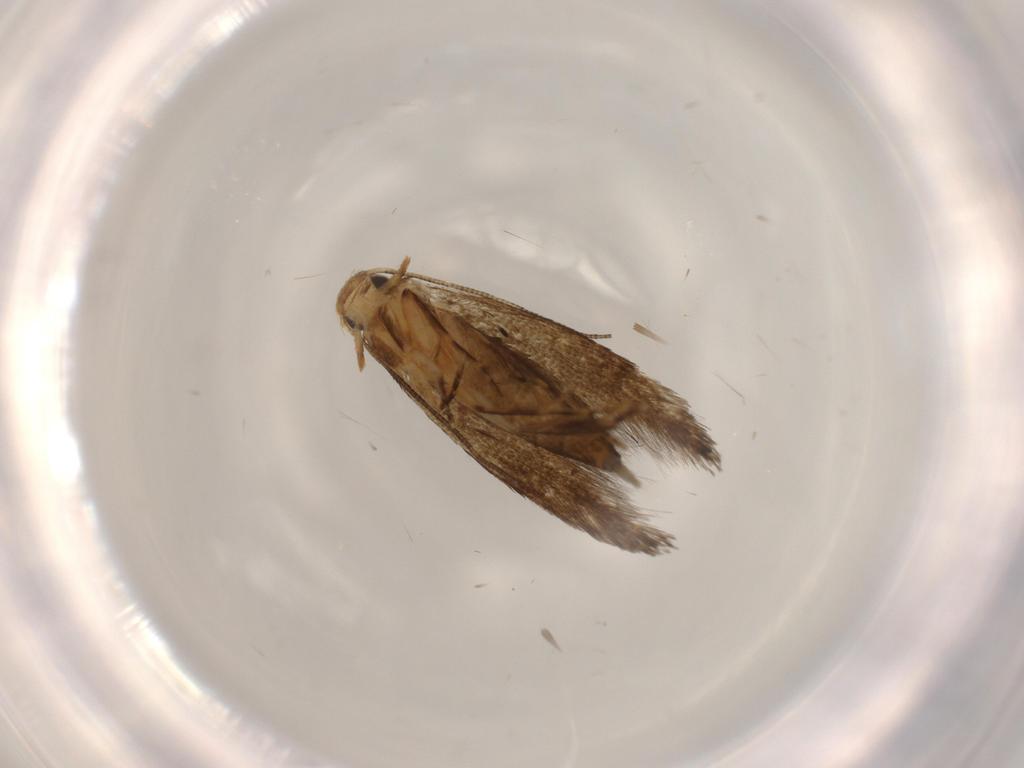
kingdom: Animalia
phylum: Arthropoda
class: Insecta
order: Lepidoptera
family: Tineidae
